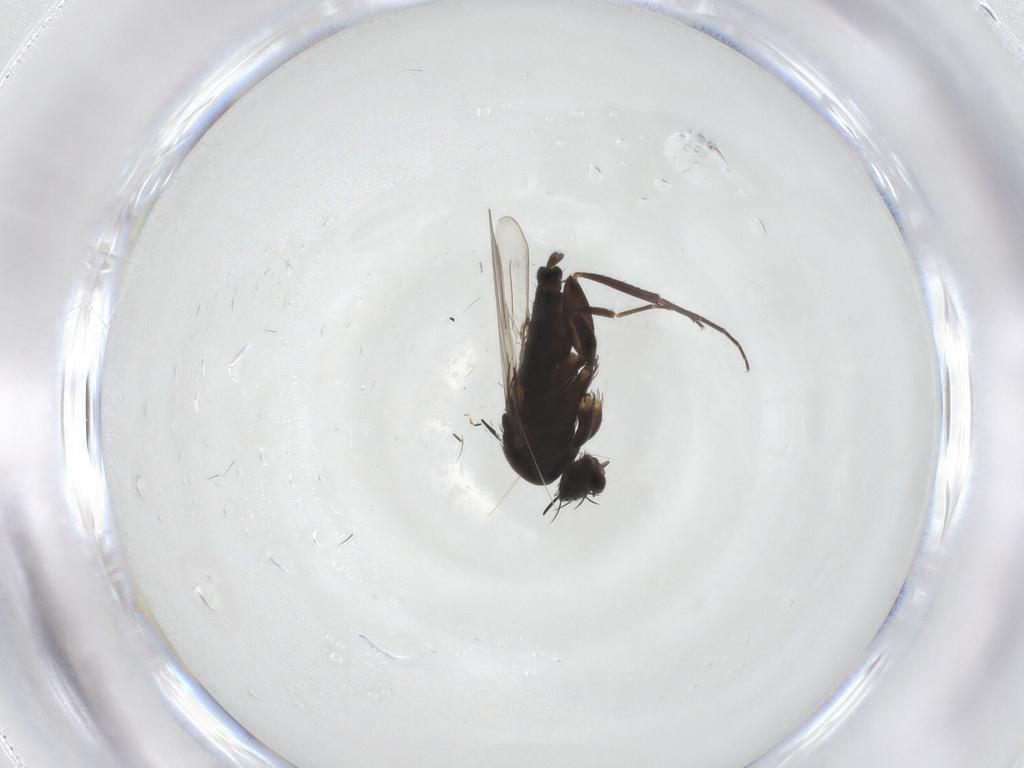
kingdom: Animalia
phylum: Arthropoda
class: Insecta
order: Diptera
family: Phoridae
